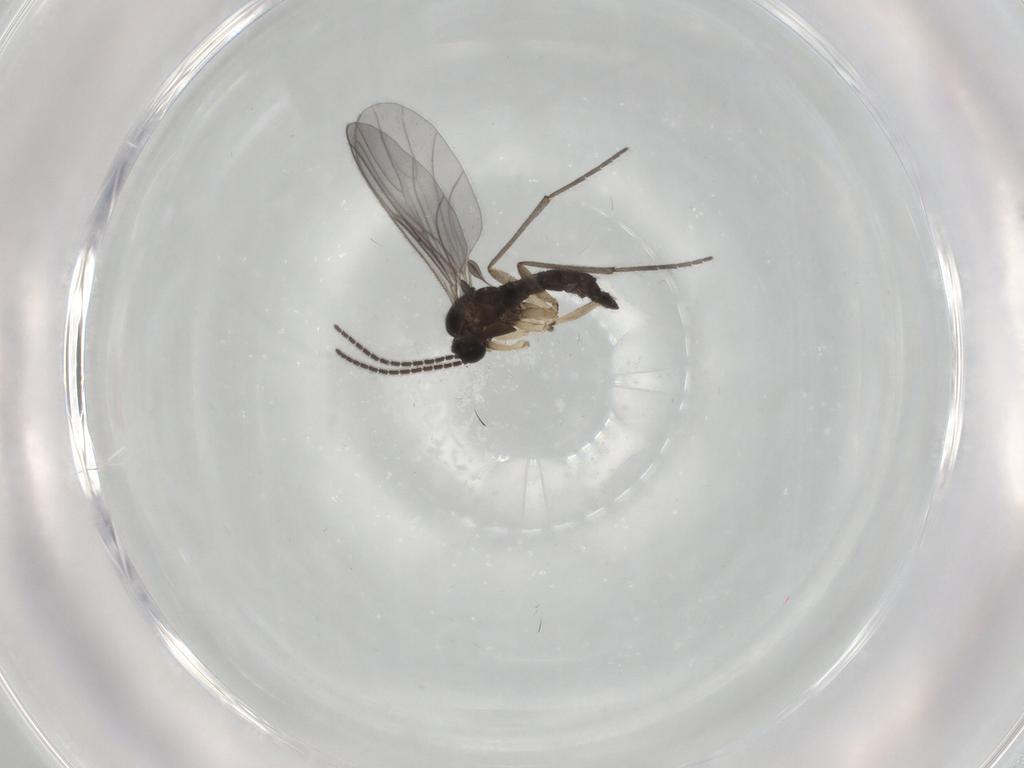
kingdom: Animalia
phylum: Arthropoda
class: Insecta
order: Diptera
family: Sciaridae
